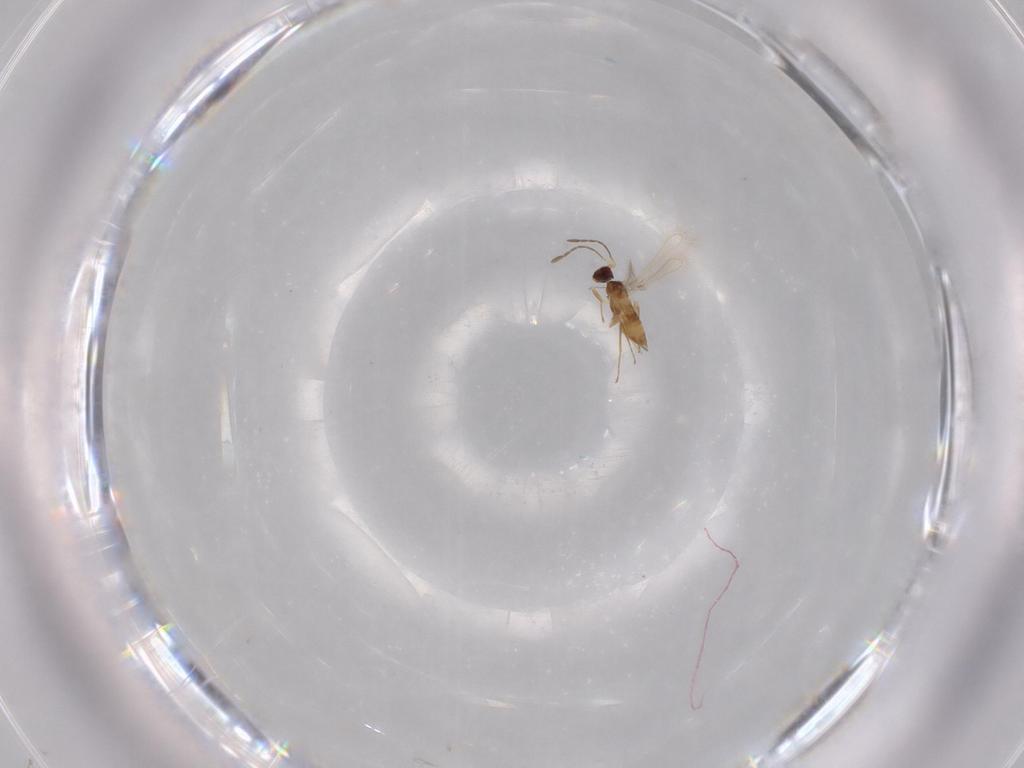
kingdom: Animalia
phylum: Arthropoda
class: Insecta
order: Hymenoptera
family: Mymaridae
